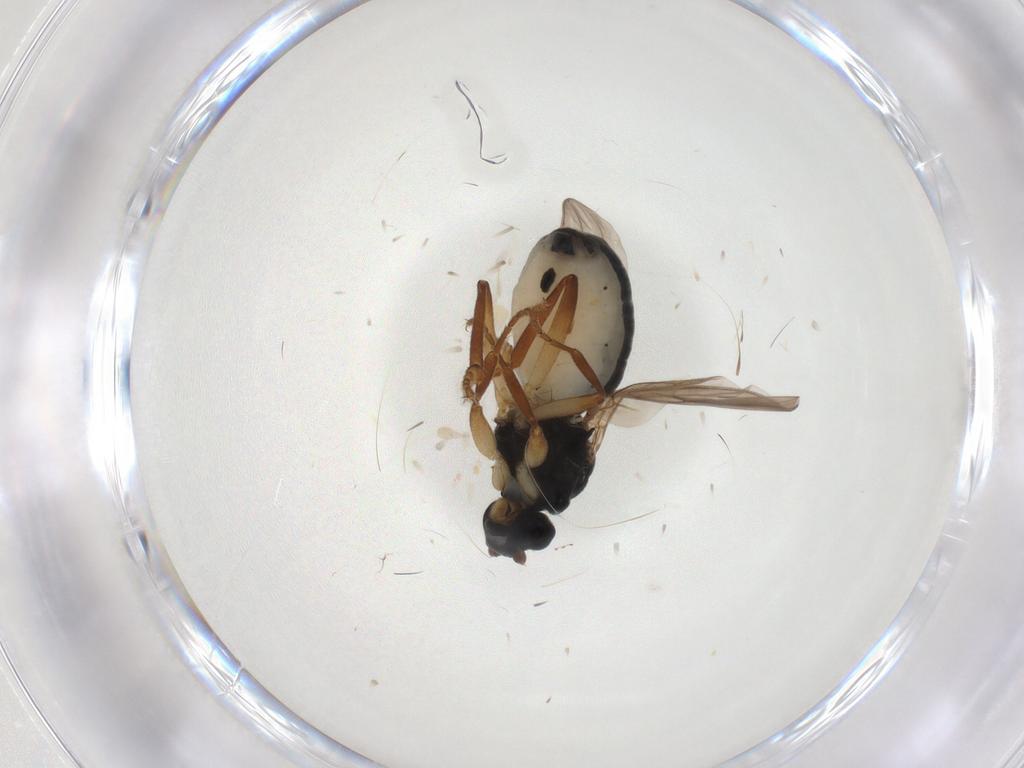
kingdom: Animalia
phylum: Arthropoda
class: Insecta
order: Diptera
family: Sphaeroceridae
